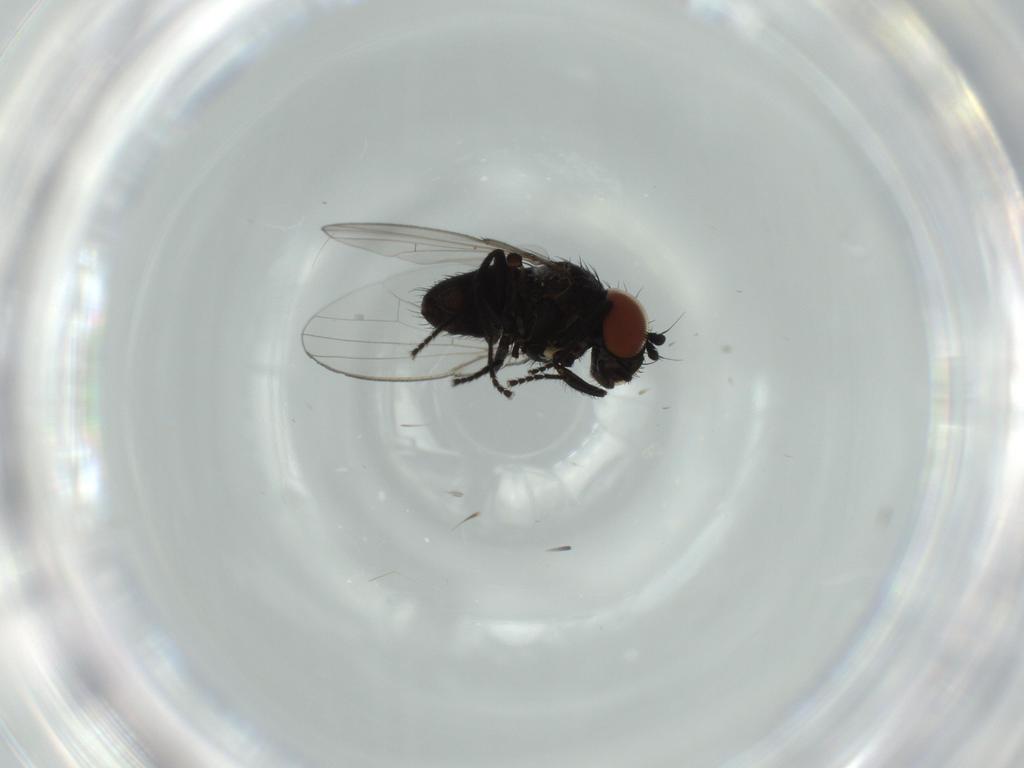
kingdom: Animalia
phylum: Arthropoda
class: Insecta
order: Diptera
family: Milichiidae
